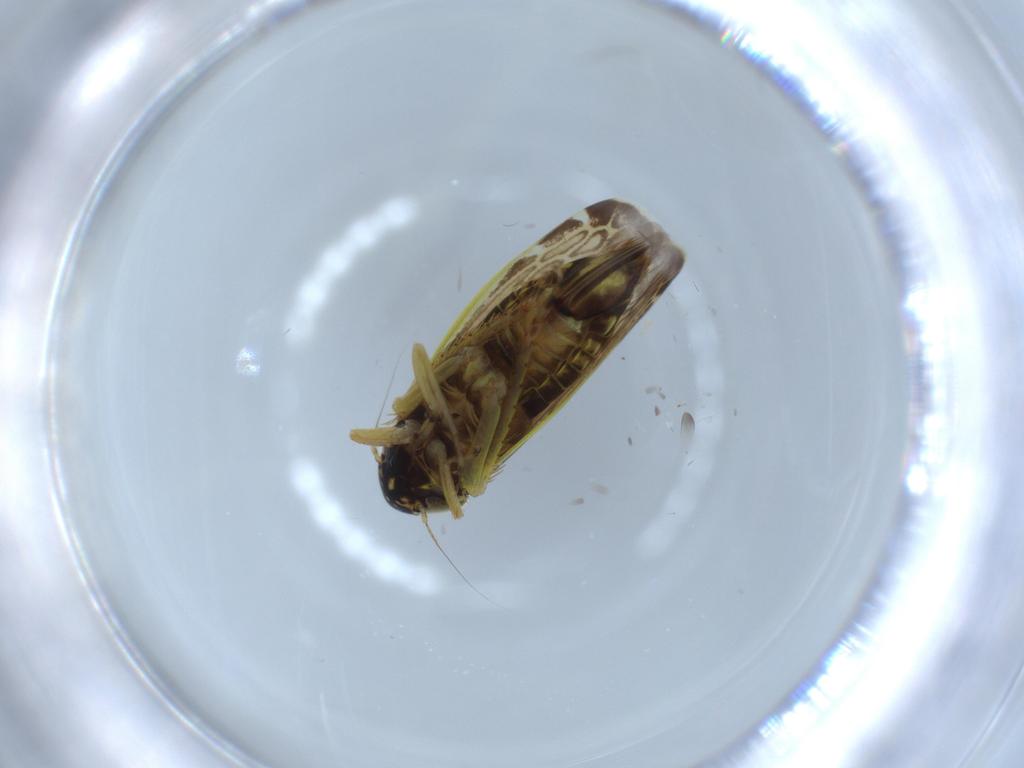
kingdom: Animalia
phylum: Arthropoda
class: Insecta
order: Hemiptera
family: Cicadellidae
